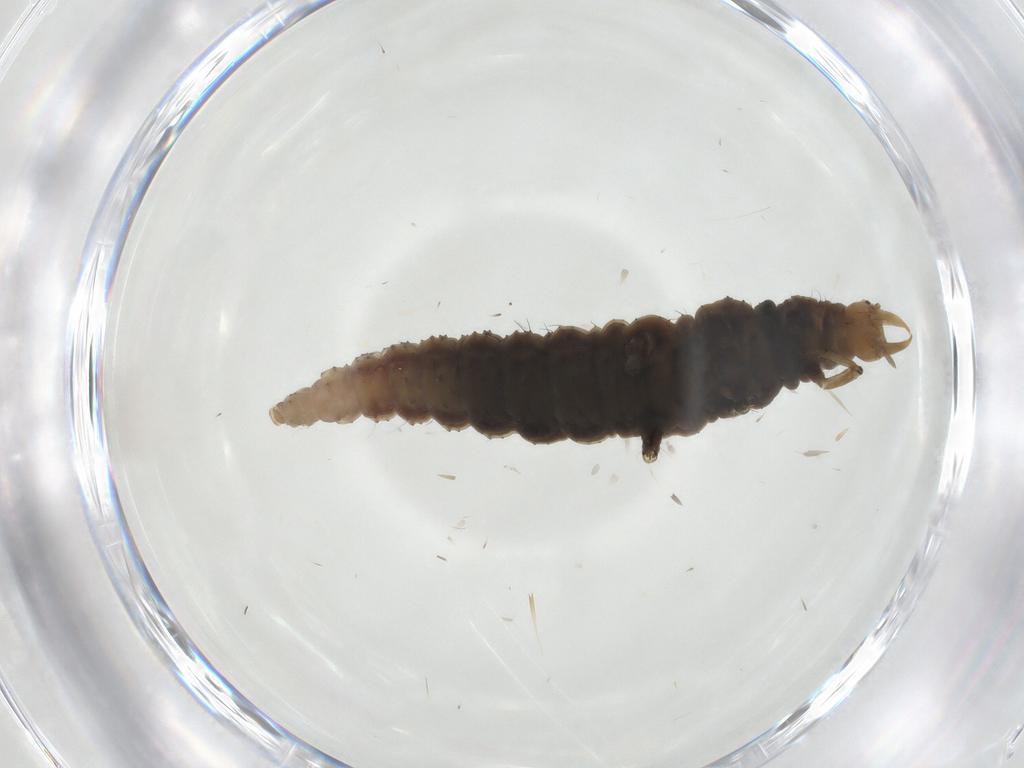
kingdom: Animalia
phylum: Arthropoda
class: Insecta
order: Neuroptera
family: Hemerobiidae
